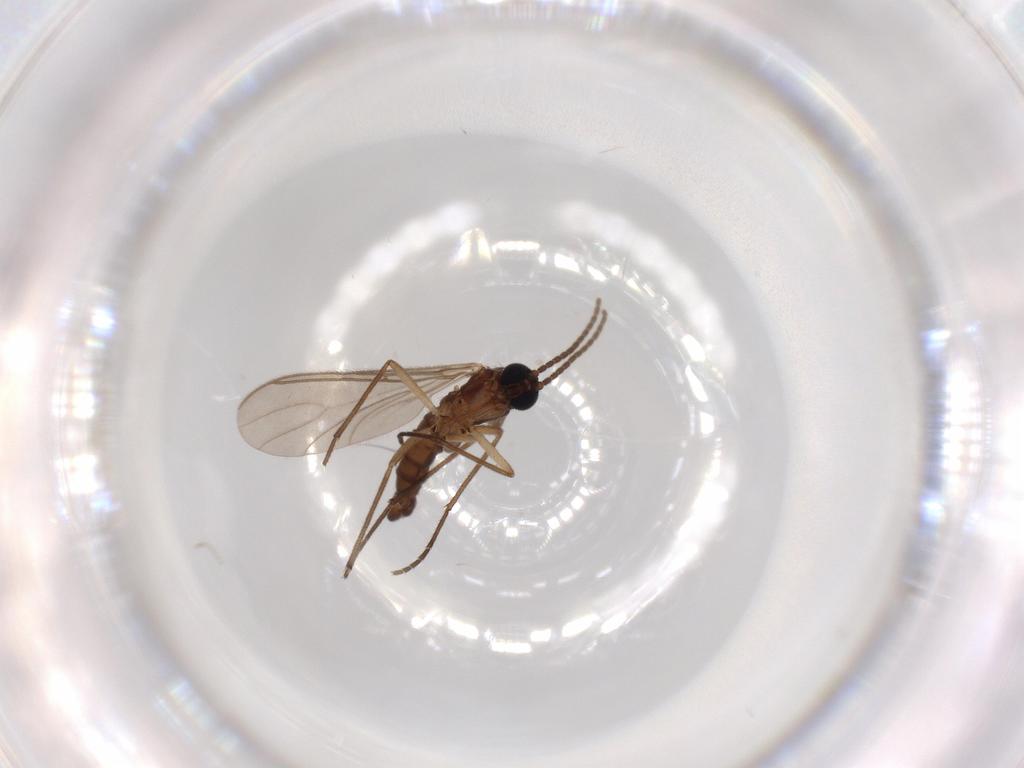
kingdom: Animalia
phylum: Arthropoda
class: Insecta
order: Diptera
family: Sciaridae
